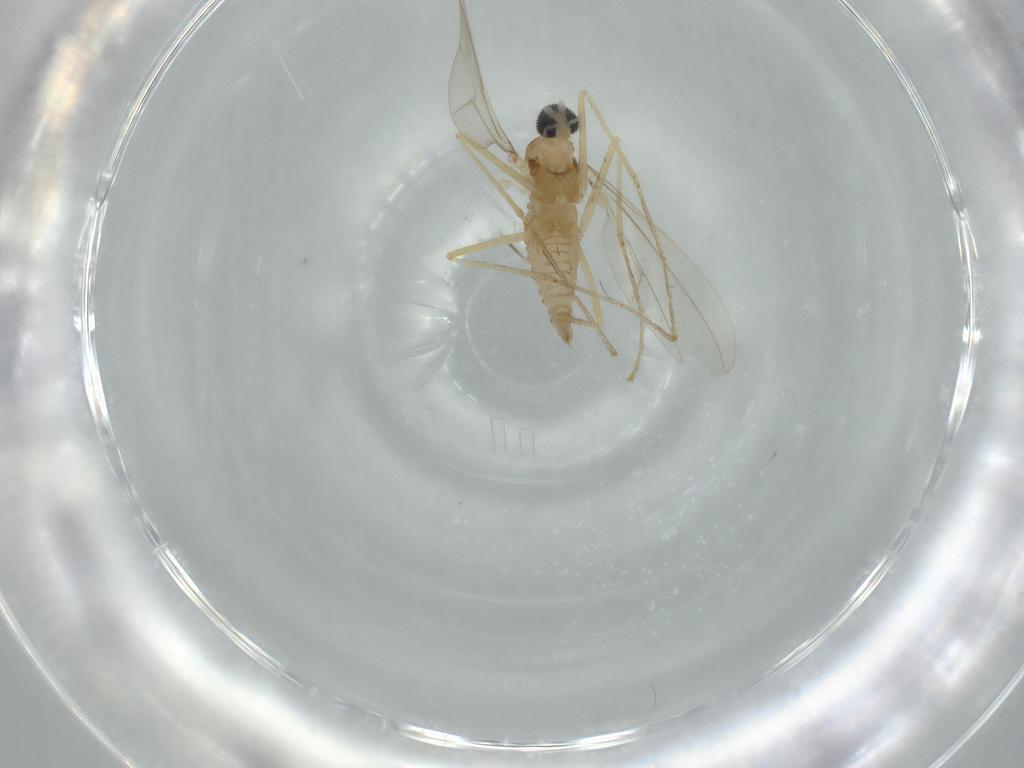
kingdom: Animalia
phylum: Arthropoda
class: Insecta
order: Diptera
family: Cecidomyiidae
